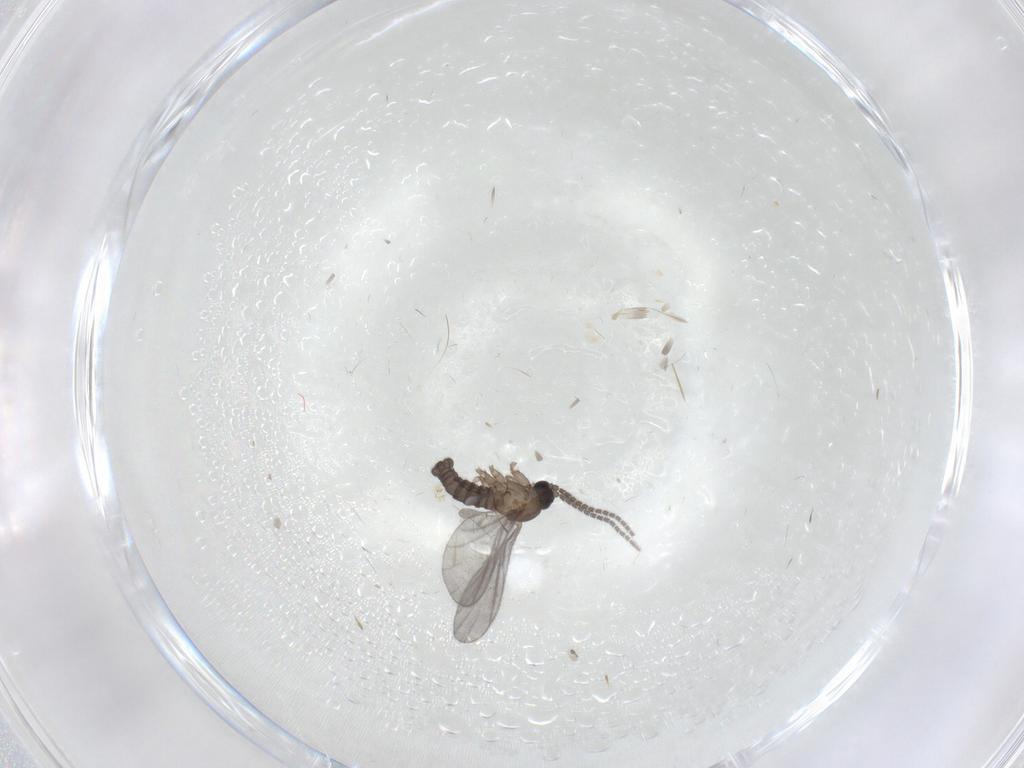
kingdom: Animalia
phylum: Arthropoda
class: Insecta
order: Diptera
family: Sciaridae
